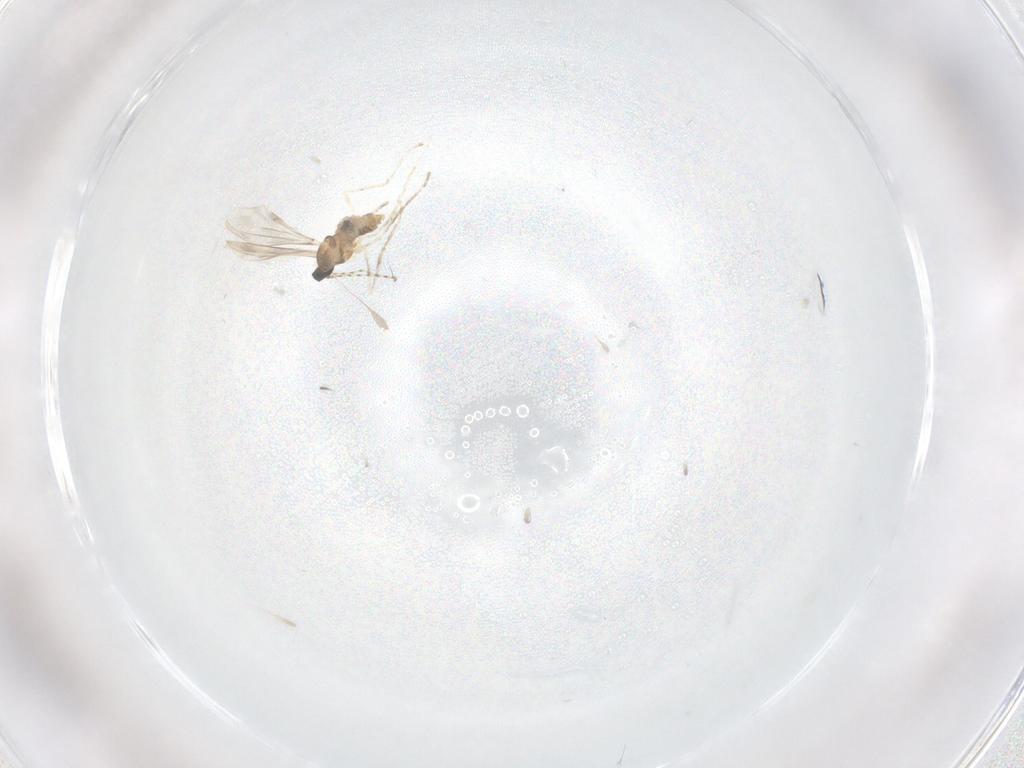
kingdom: Animalia
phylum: Arthropoda
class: Insecta
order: Diptera
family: Cecidomyiidae
